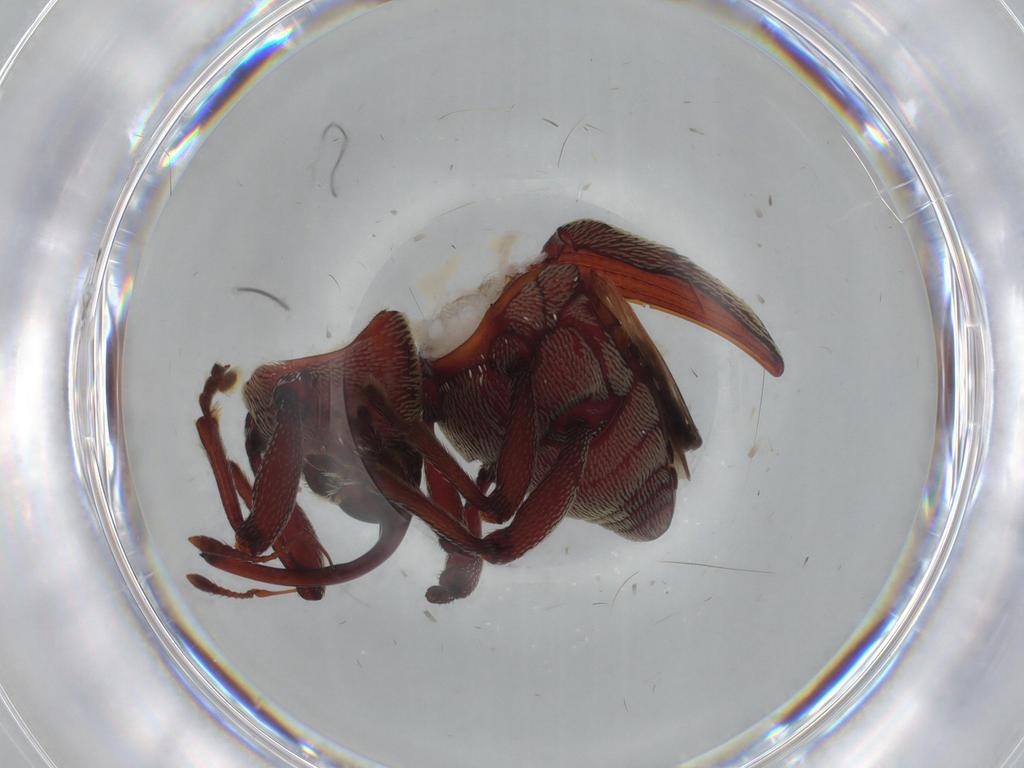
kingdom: Animalia
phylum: Arthropoda
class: Insecta
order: Coleoptera
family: Curculionidae
